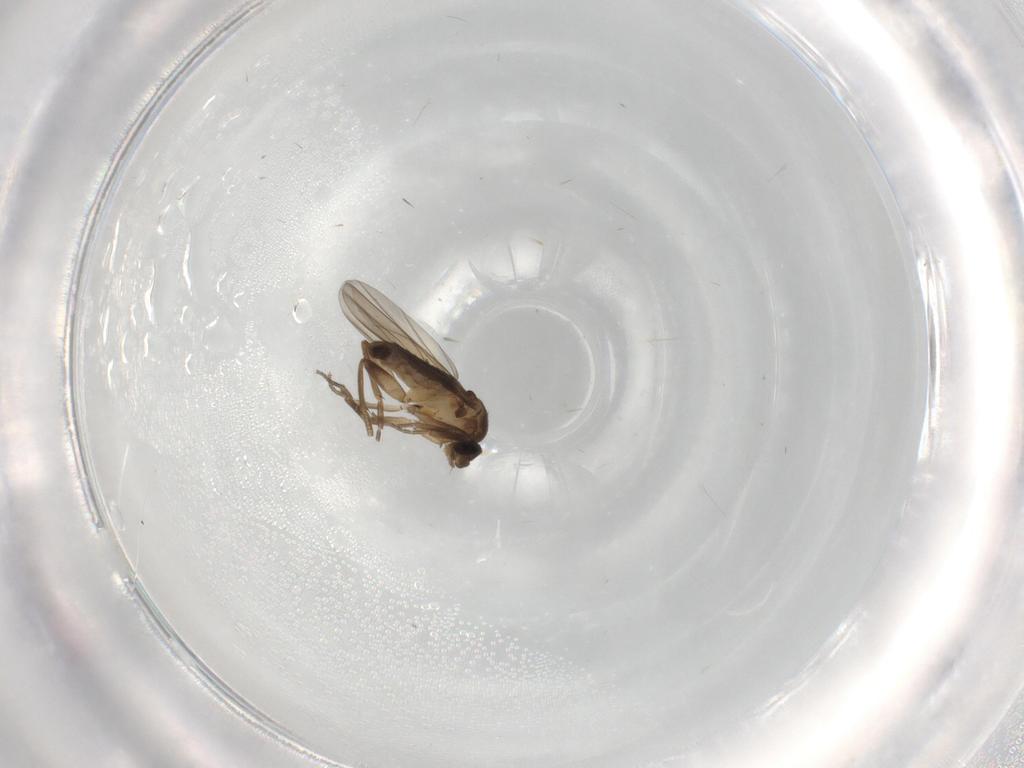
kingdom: Animalia
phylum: Arthropoda
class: Insecta
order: Diptera
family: Phoridae
